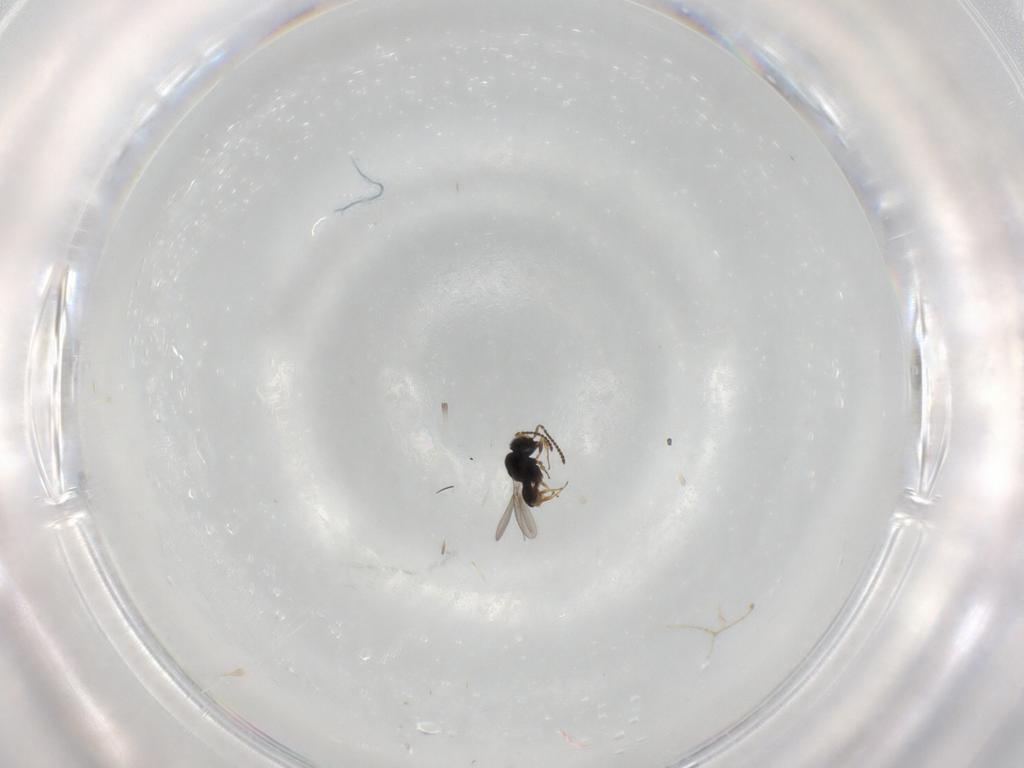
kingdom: Animalia
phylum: Arthropoda
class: Insecta
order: Hymenoptera
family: Scelionidae
